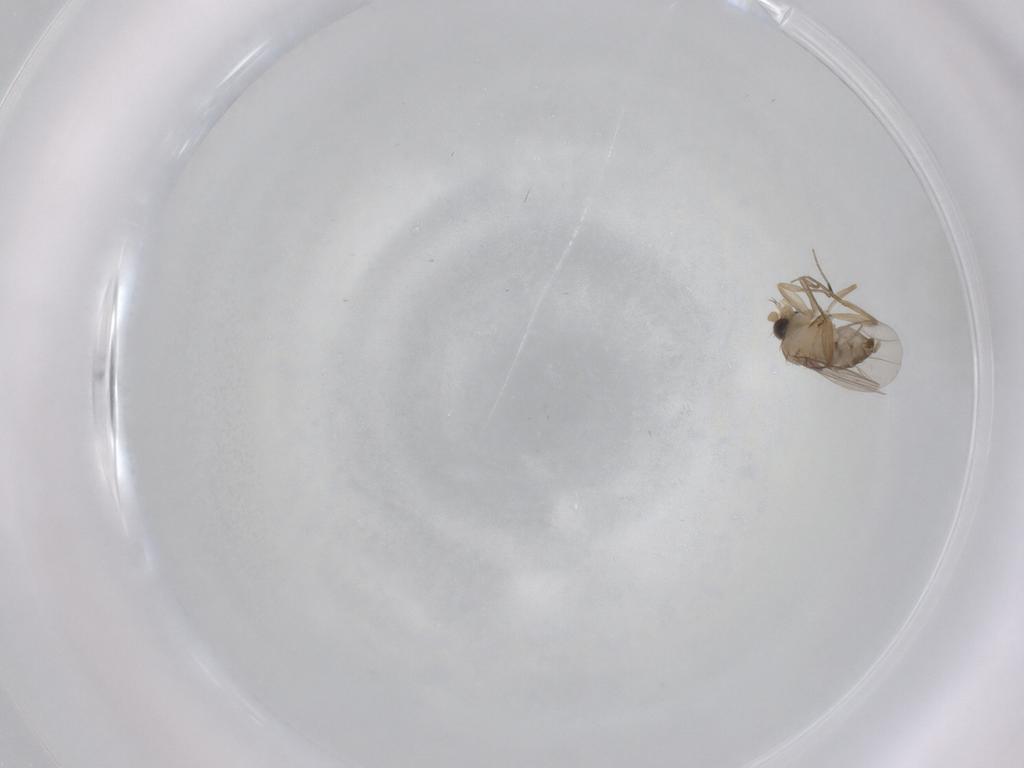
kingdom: Animalia
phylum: Arthropoda
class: Insecta
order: Diptera
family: Phoridae
